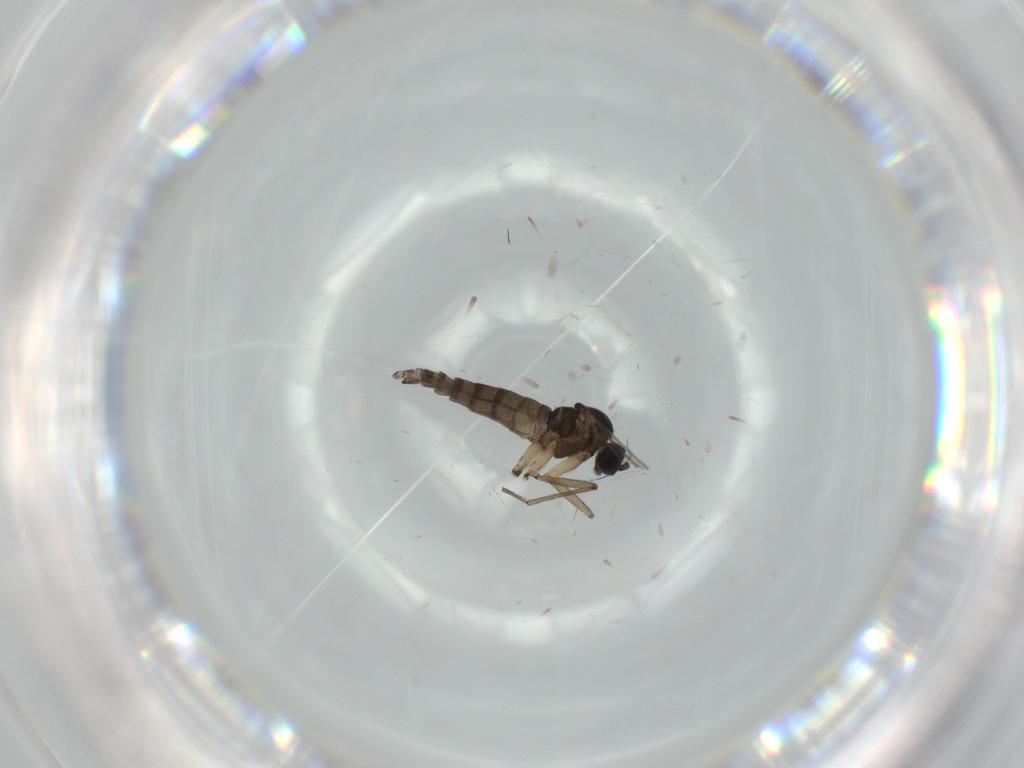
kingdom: Animalia
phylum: Arthropoda
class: Insecta
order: Diptera
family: Sciaridae
